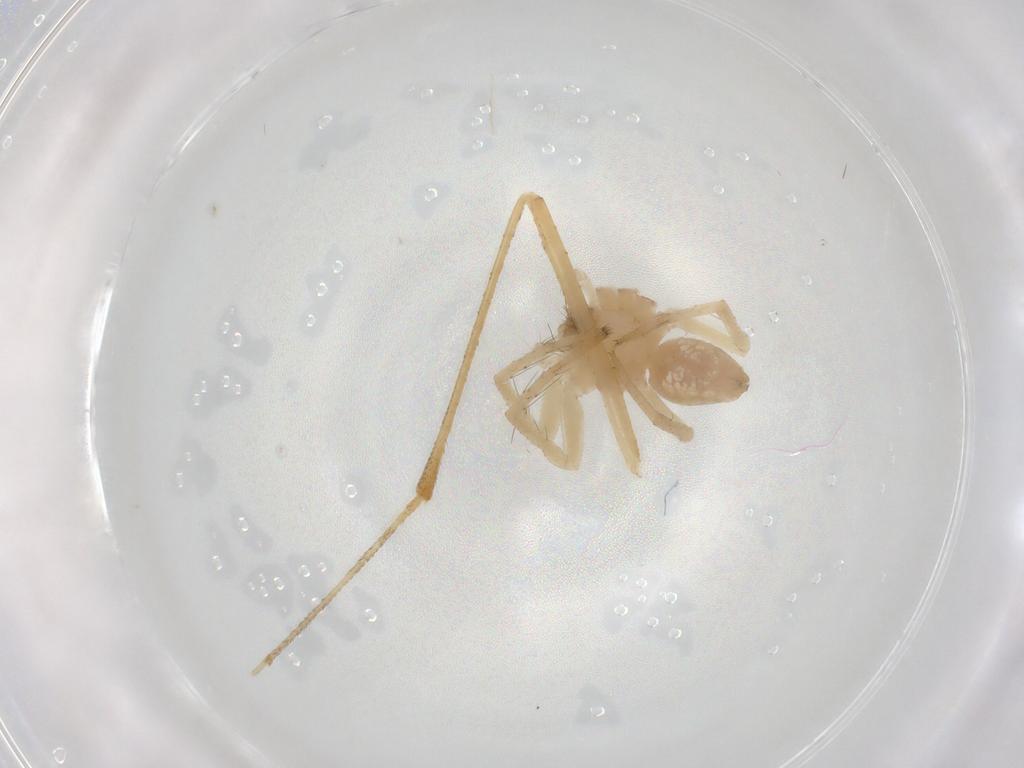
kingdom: Animalia
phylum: Arthropoda
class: Arachnida
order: Araneae
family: Pisauridae
